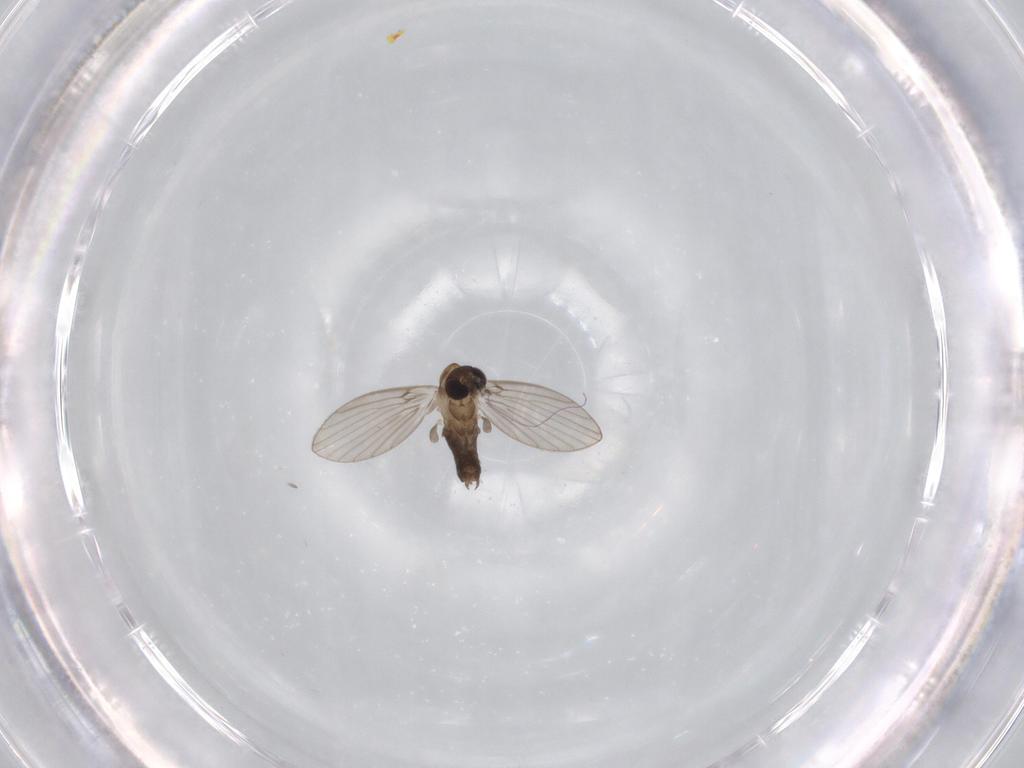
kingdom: Animalia
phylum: Arthropoda
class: Insecta
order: Diptera
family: Psychodidae
